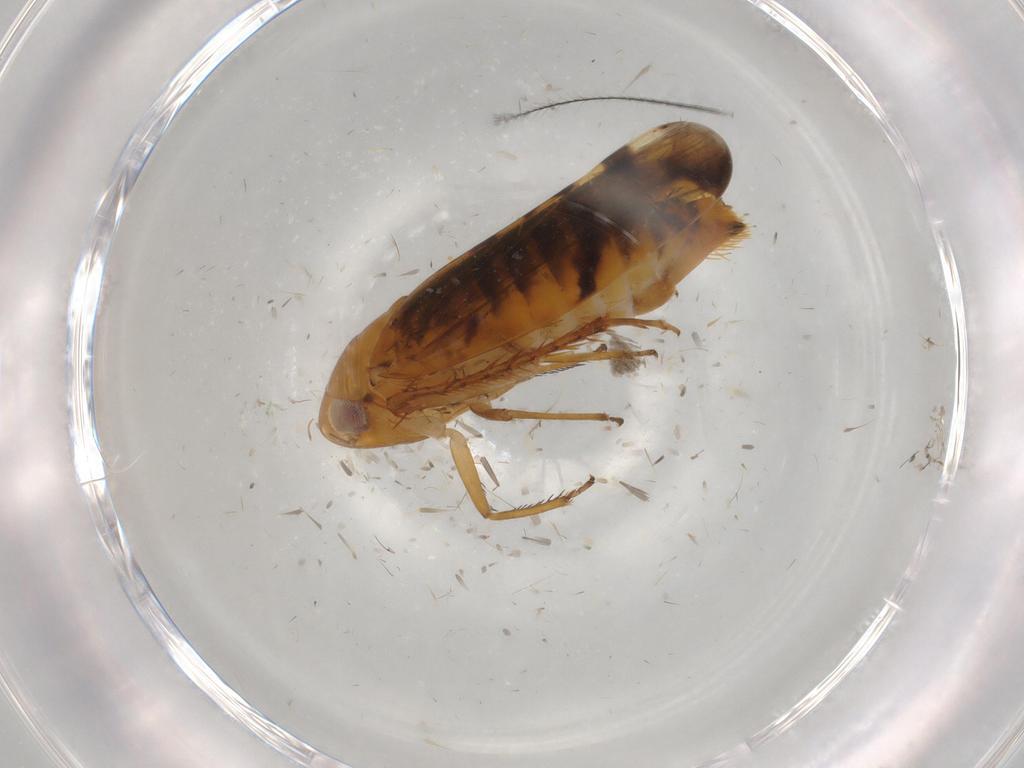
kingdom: Animalia
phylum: Arthropoda
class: Insecta
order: Hemiptera
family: Cicadellidae
